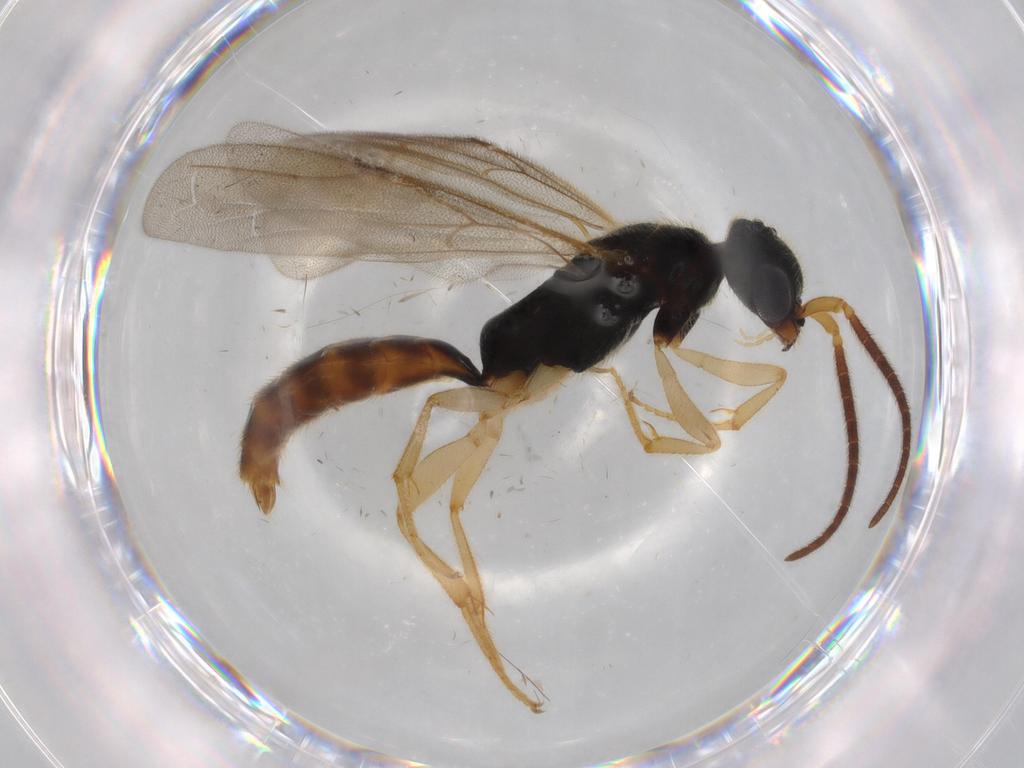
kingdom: Animalia
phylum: Arthropoda
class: Insecta
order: Hymenoptera
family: Bethylidae
